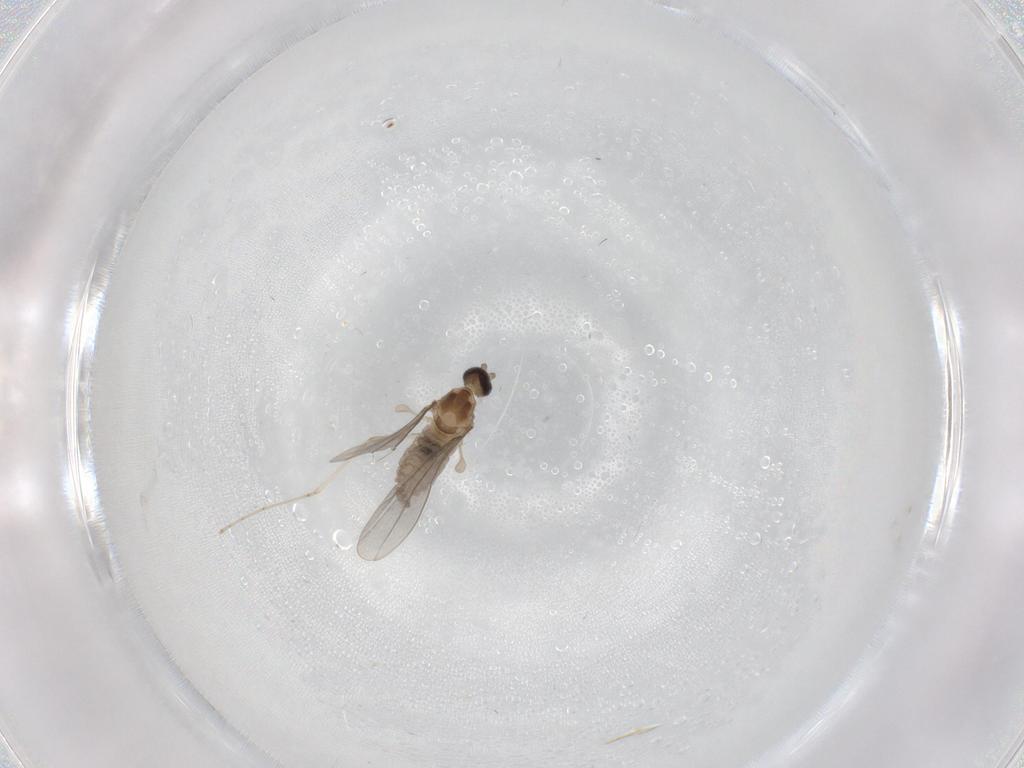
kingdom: Animalia
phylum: Arthropoda
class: Insecta
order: Diptera
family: Cecidomyiidae
